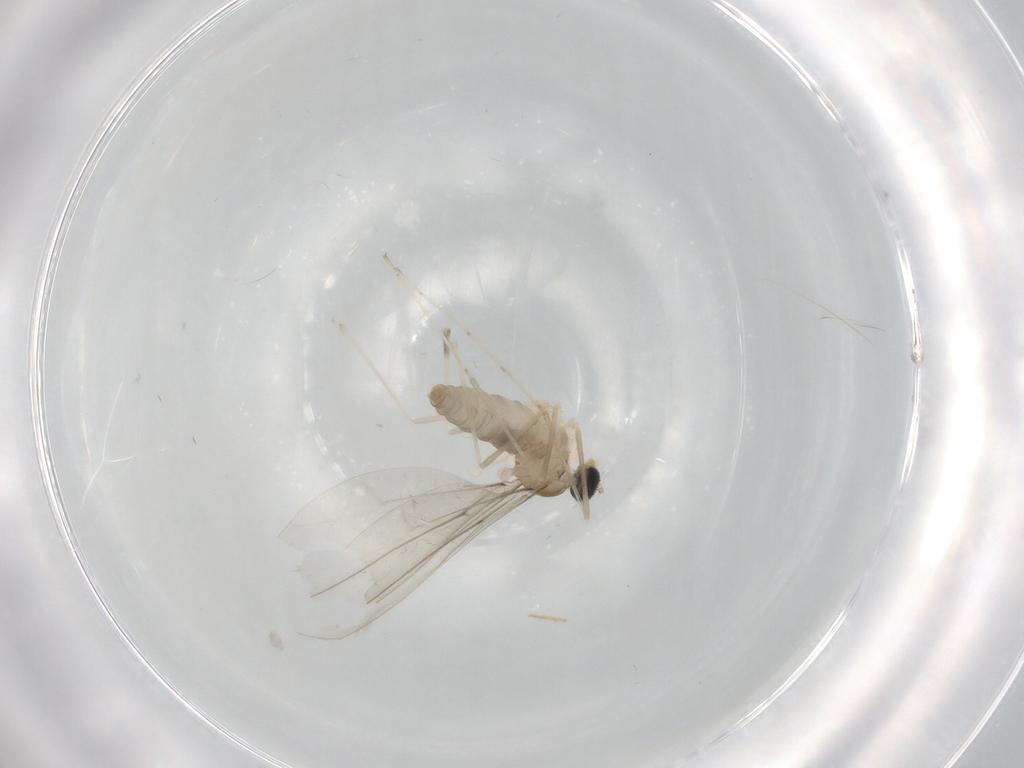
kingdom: Animalia
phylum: Arthropoda
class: Insecta
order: Diptera
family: Cecidomyiidae
